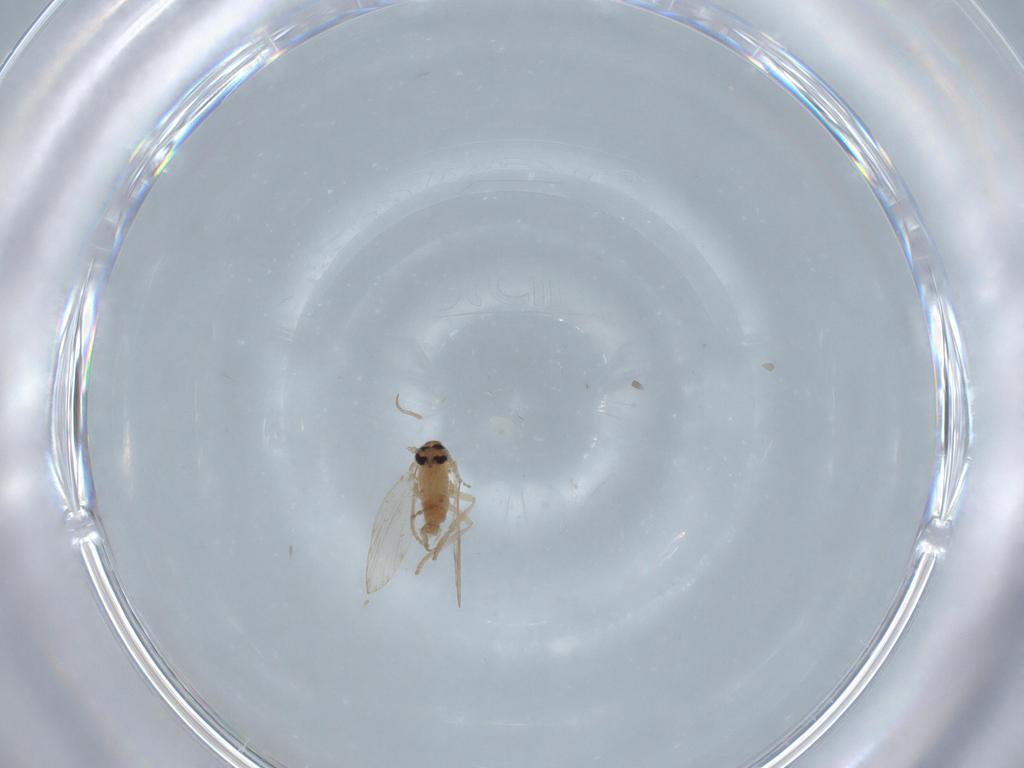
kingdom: Animalia
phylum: Arthropoda
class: Insecta
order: Diptera
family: Psychodidae
